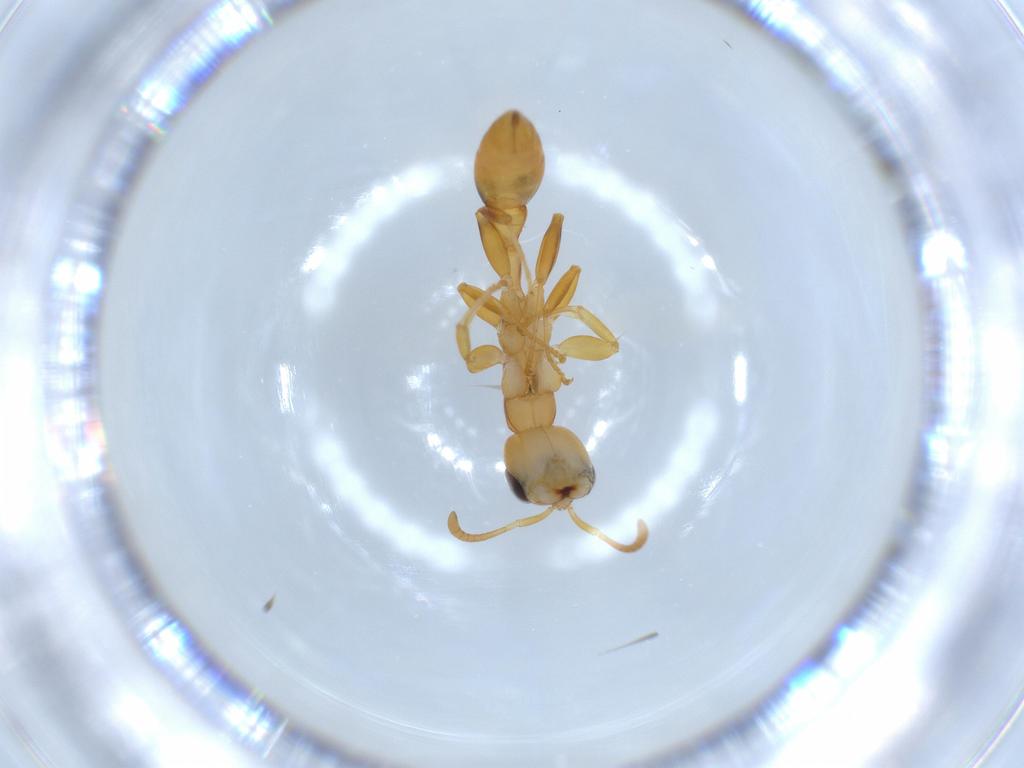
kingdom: Animalia
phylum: Arthropoda
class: Insecta
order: Hymenoptera
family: Formicidae
